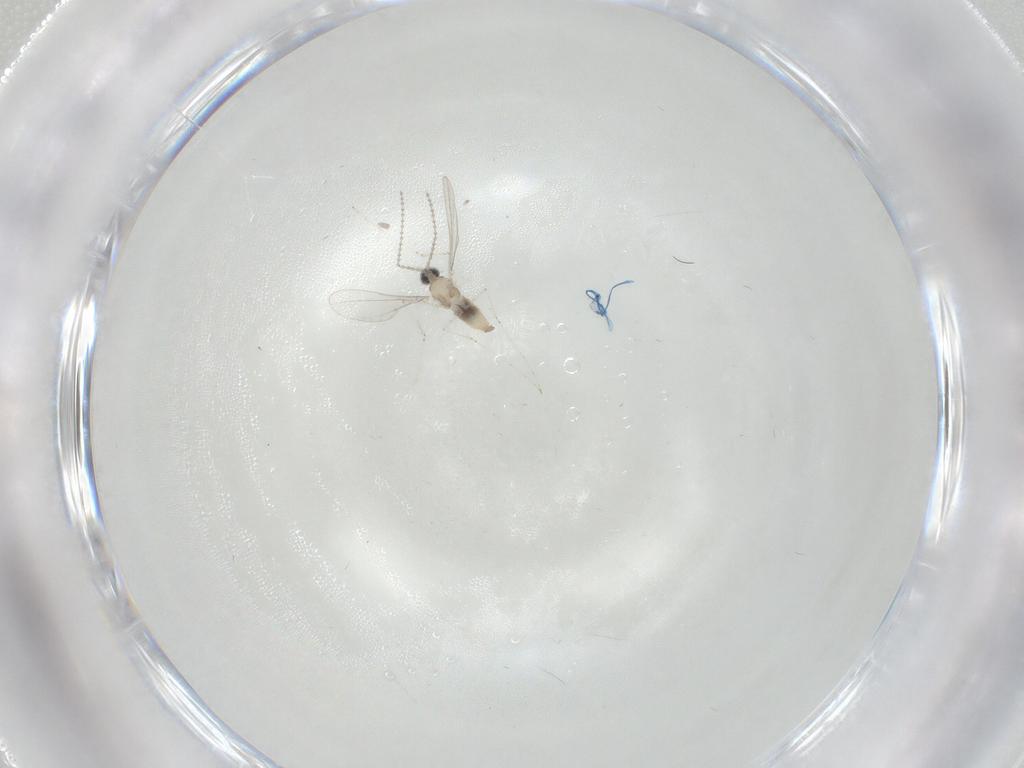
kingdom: Animalia
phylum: Arthropoda
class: Insecta
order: Diptera
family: Cecidomyiidae
